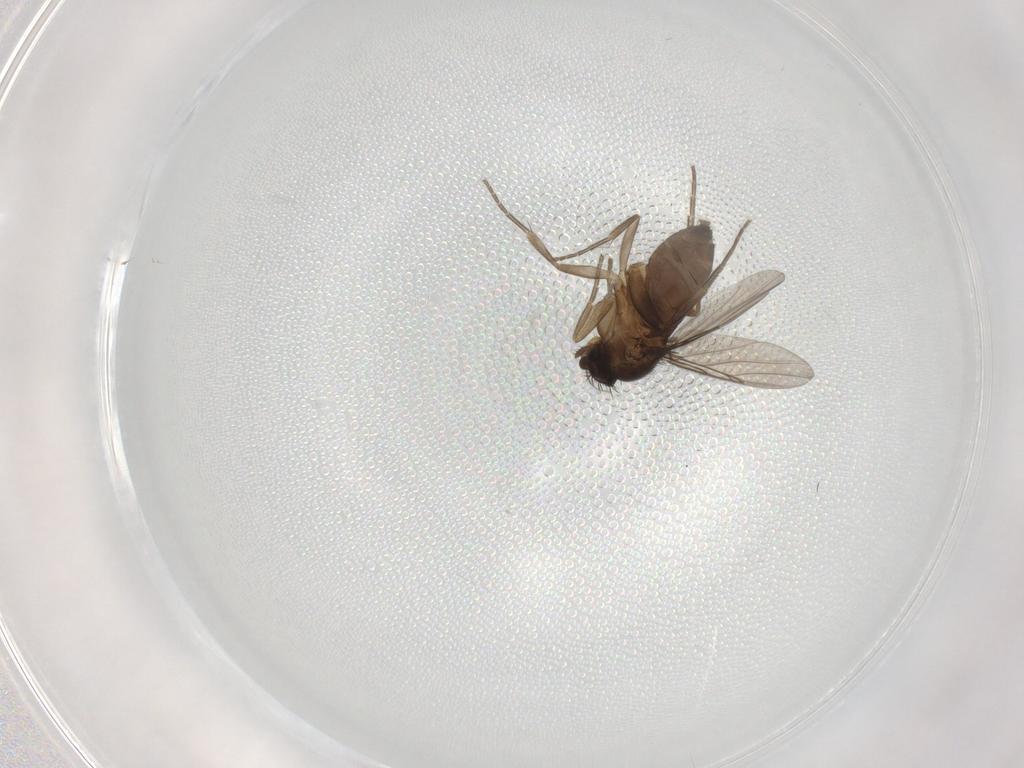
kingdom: Animalia
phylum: Arthropoda
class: Insecta
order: Diptera
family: Phoridae
